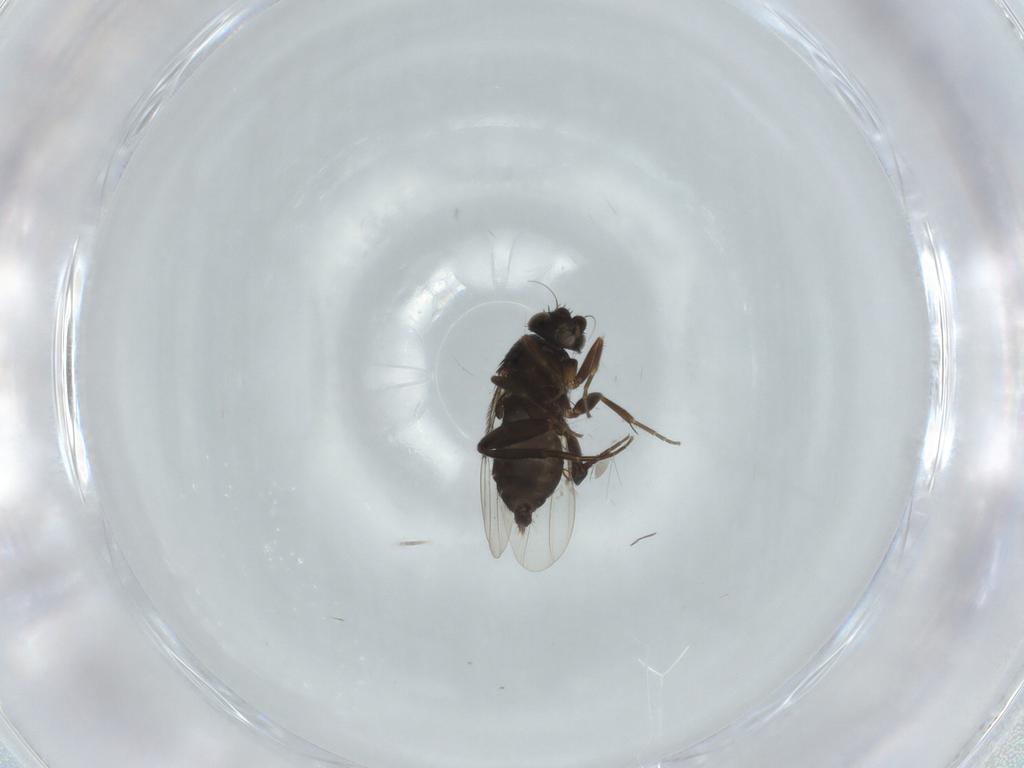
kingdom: Animalia
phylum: Arthropoda
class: Insecta
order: Diptera
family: Phoridae
